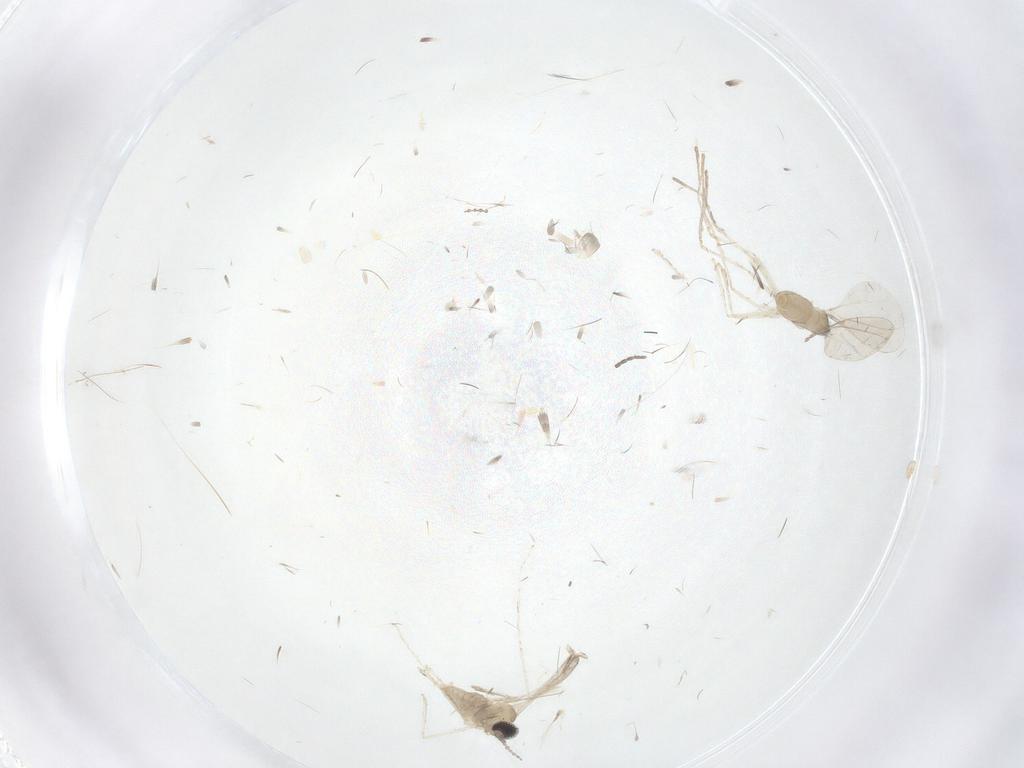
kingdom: Animalia
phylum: Arthropoda
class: Insecta
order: Diptera
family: Cecidomyiidae
